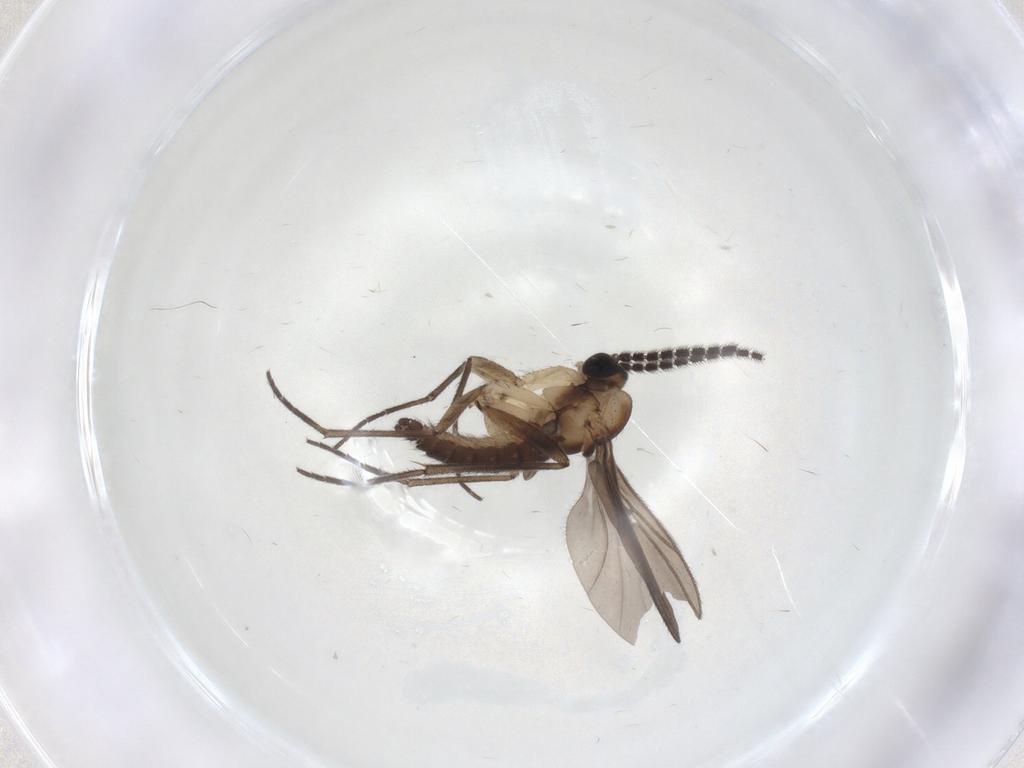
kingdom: Animalia
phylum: Arthropoda
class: Insecta
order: Diptera
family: Sciaridae
